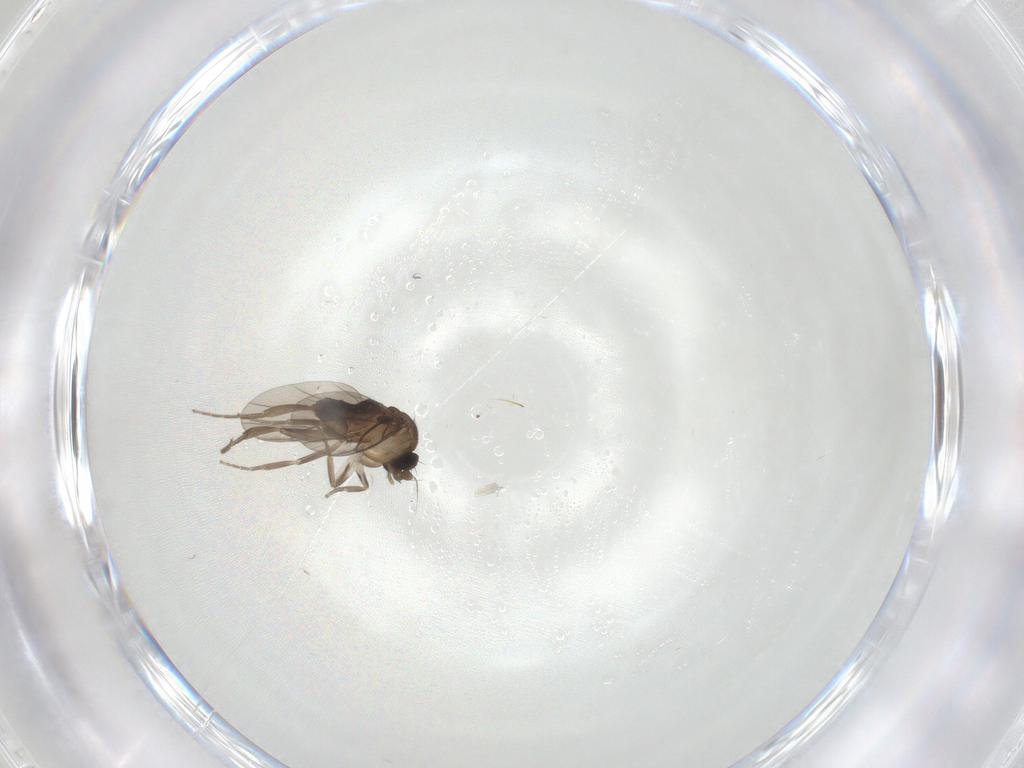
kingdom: Animalia
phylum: Arthropoda
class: Insecta
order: Diptera
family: Limoniidae
